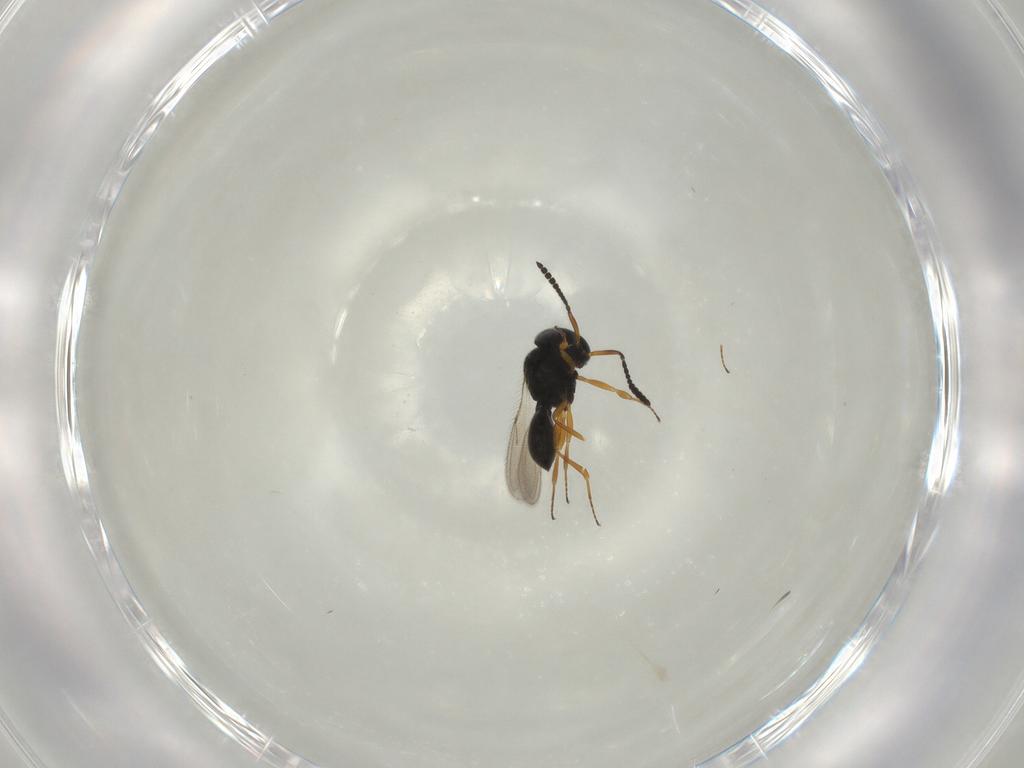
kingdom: Animalia
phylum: Arthropoda
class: Insecta
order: Hymenoptera
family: Scelionidae
